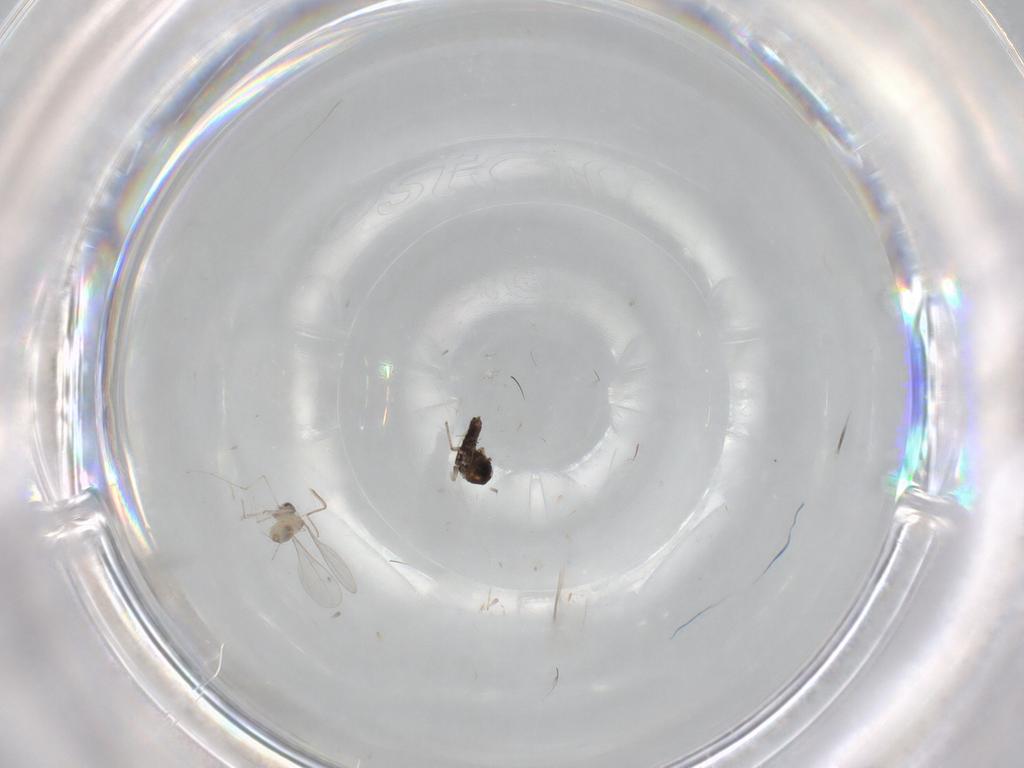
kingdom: Animalia
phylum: Arthropoda
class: Insecta
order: Diptera
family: Chironomidae
